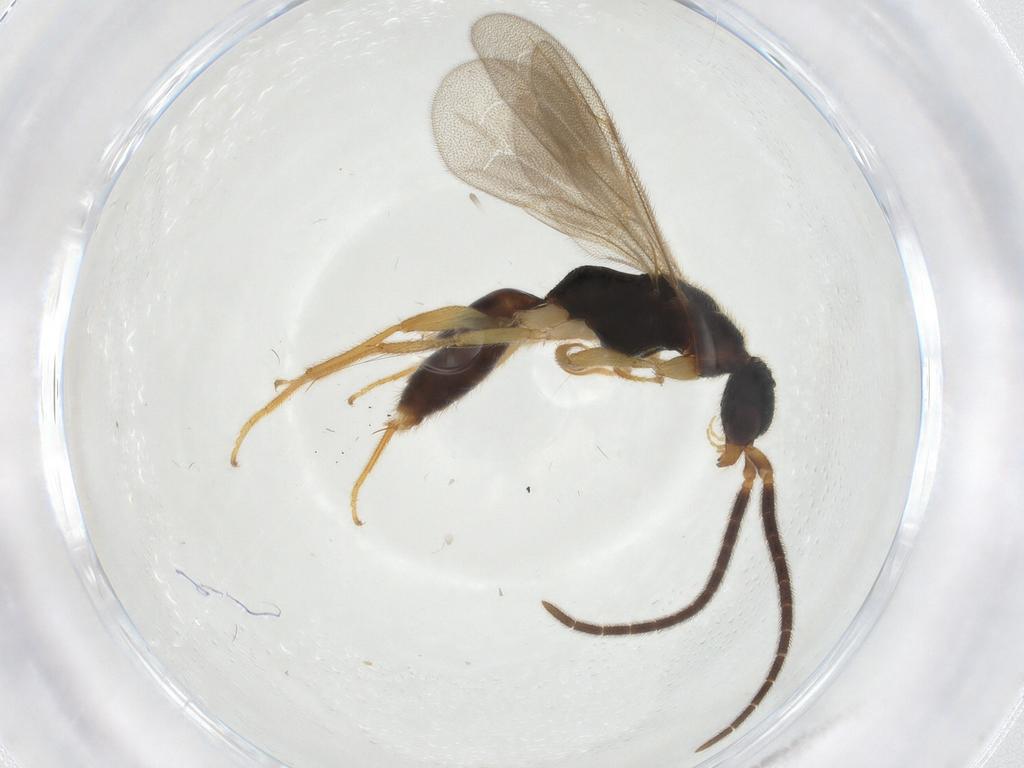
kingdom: Animalia
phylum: Arthropoda
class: Insecta
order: Hymenoptera
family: Bethylidae
